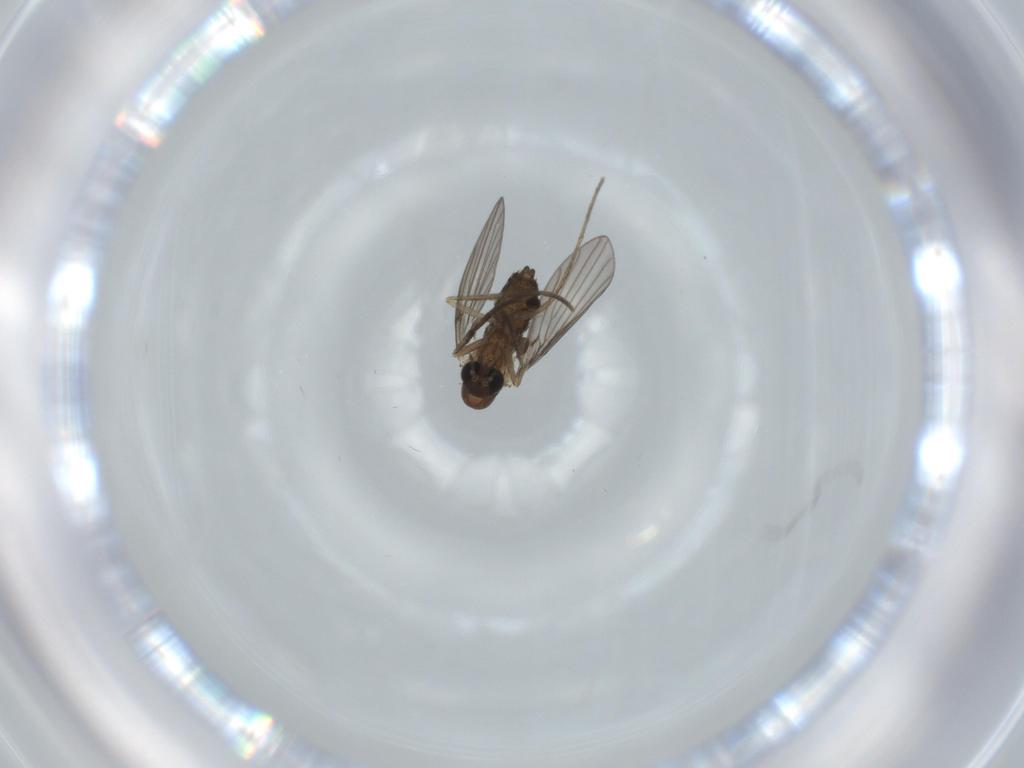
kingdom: Animalia
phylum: Arthropoda
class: Insecta
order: Diptera
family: Psychodidae
